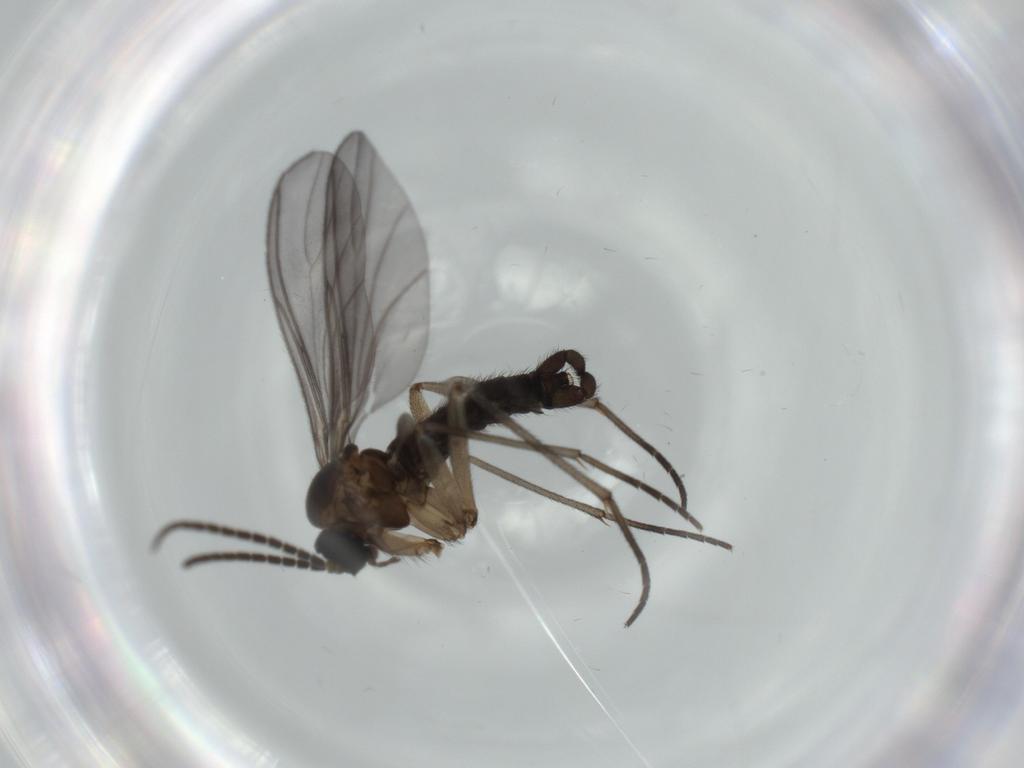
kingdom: Animalia
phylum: Arthropoda
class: Insecta
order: Diptera
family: Sciaridae
